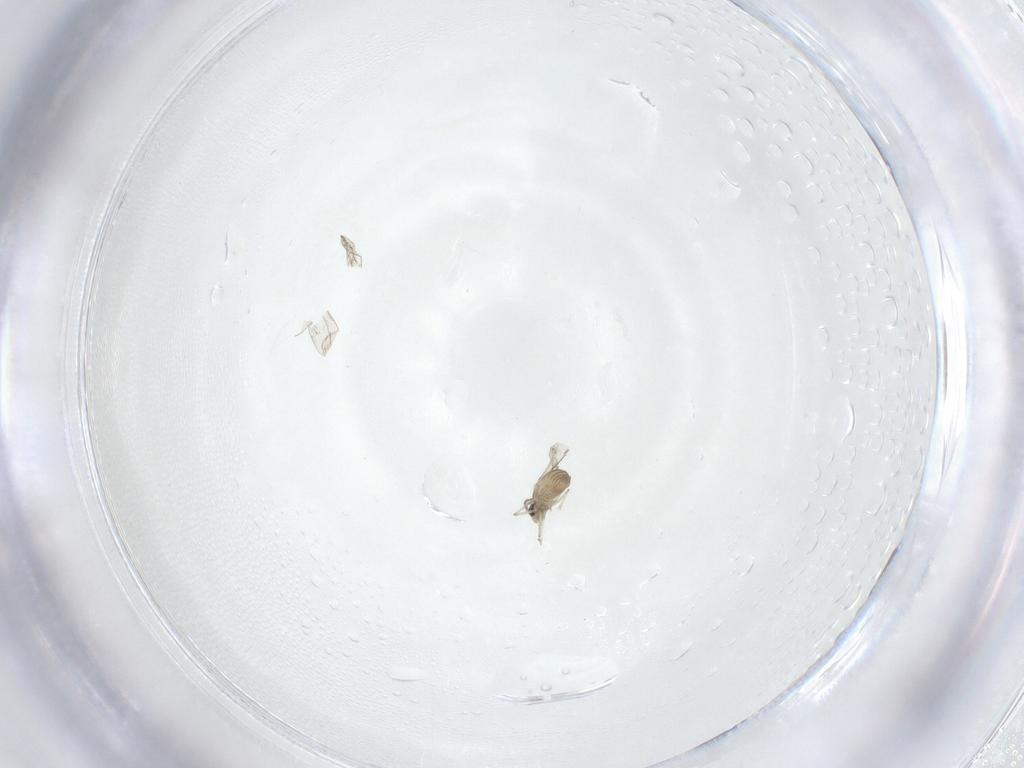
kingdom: Animalia
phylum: Arthropoda
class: Insecta
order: Diptera
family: Cecidomyiidae
